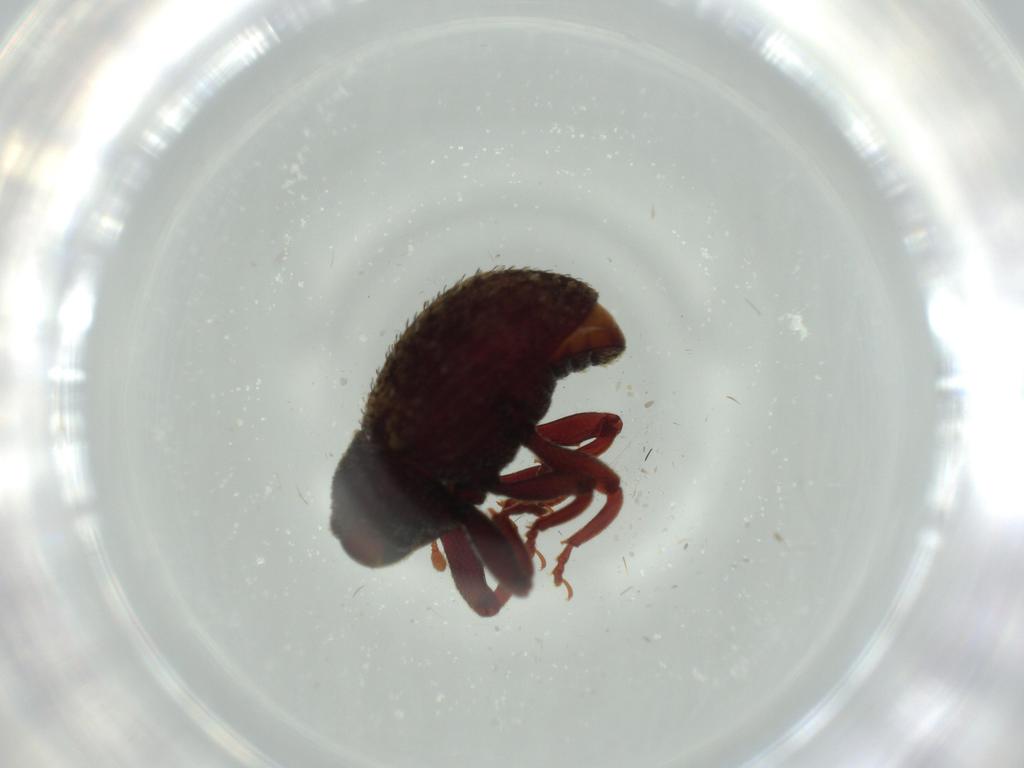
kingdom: Animalia
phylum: Arthropoda
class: Insecta
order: Coleoptera
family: Curculionidae
